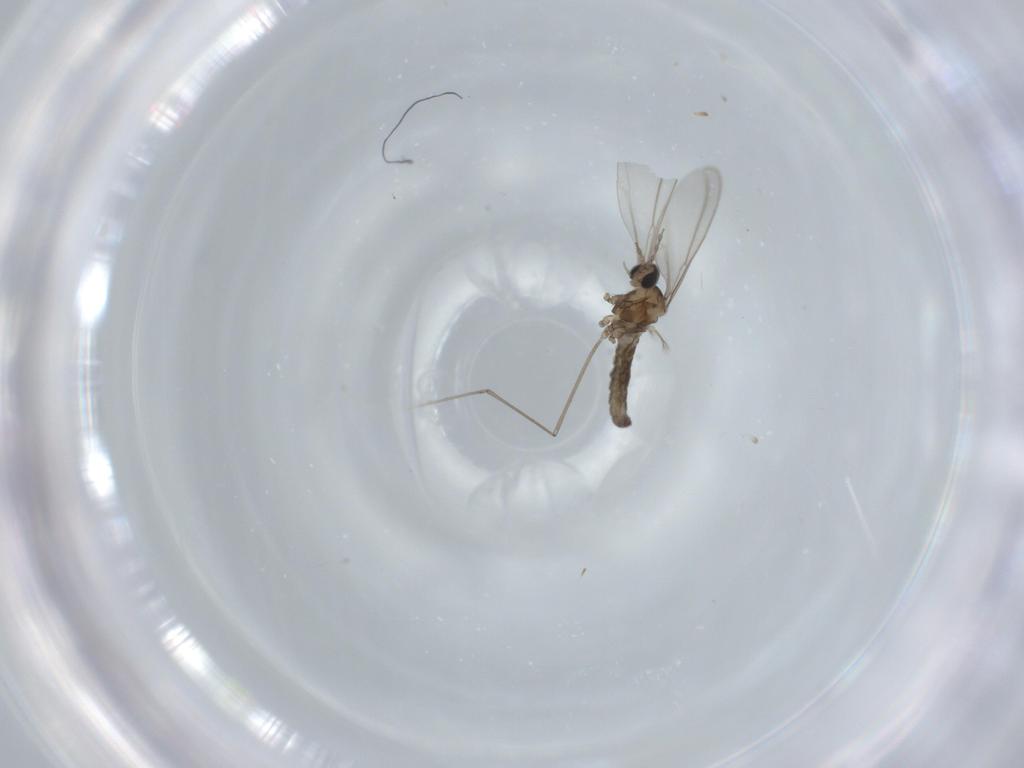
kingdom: Animalia
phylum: Arthropoda
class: Insecta
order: Diptera
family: Cecidomyiidae
